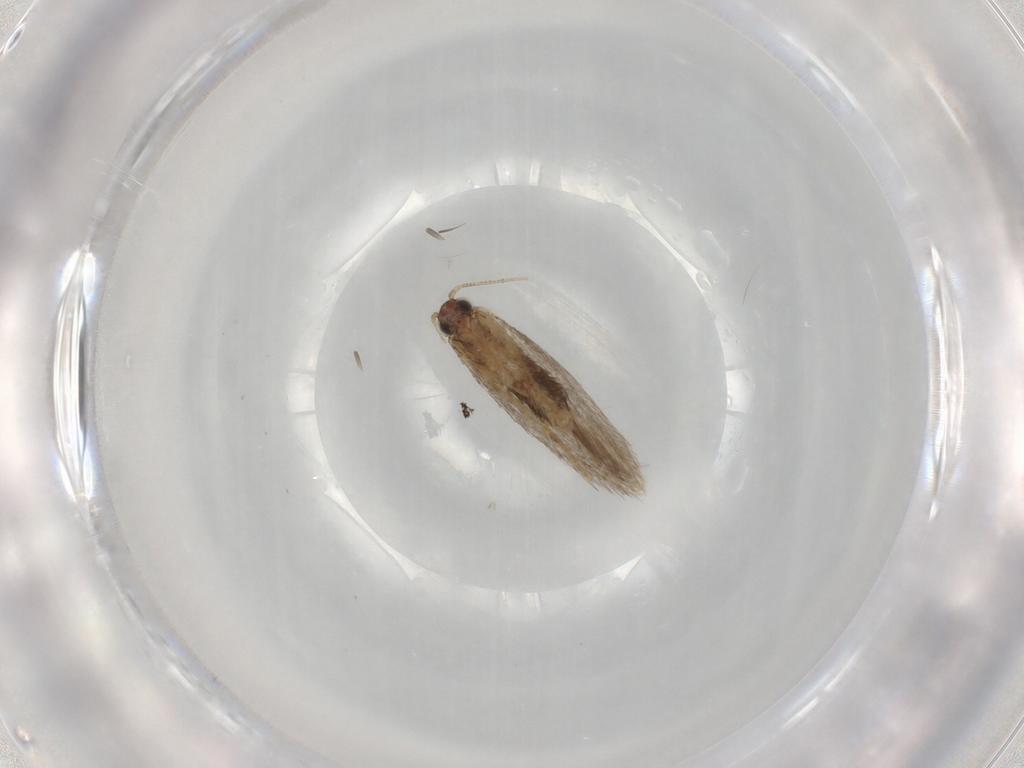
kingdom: Animalia
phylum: Arthropoda
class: Insecta
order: Lepidoptera
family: Tineidae
